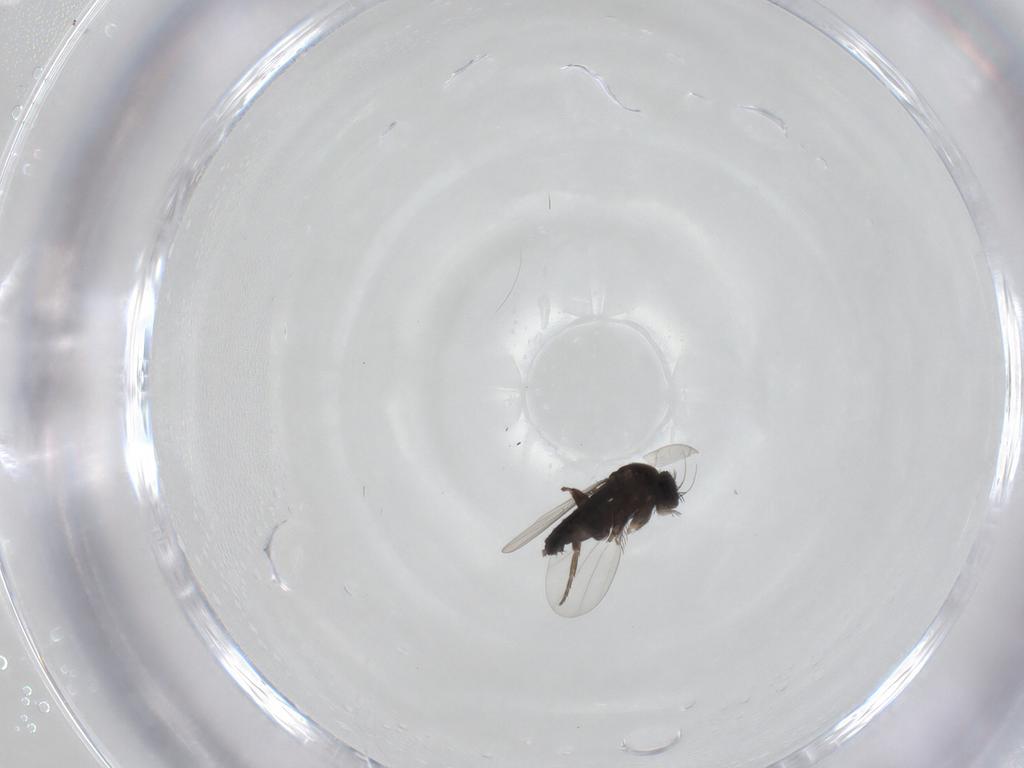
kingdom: Animalia
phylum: Arthropoda
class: Insecta
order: Diptera
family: Phoridae
